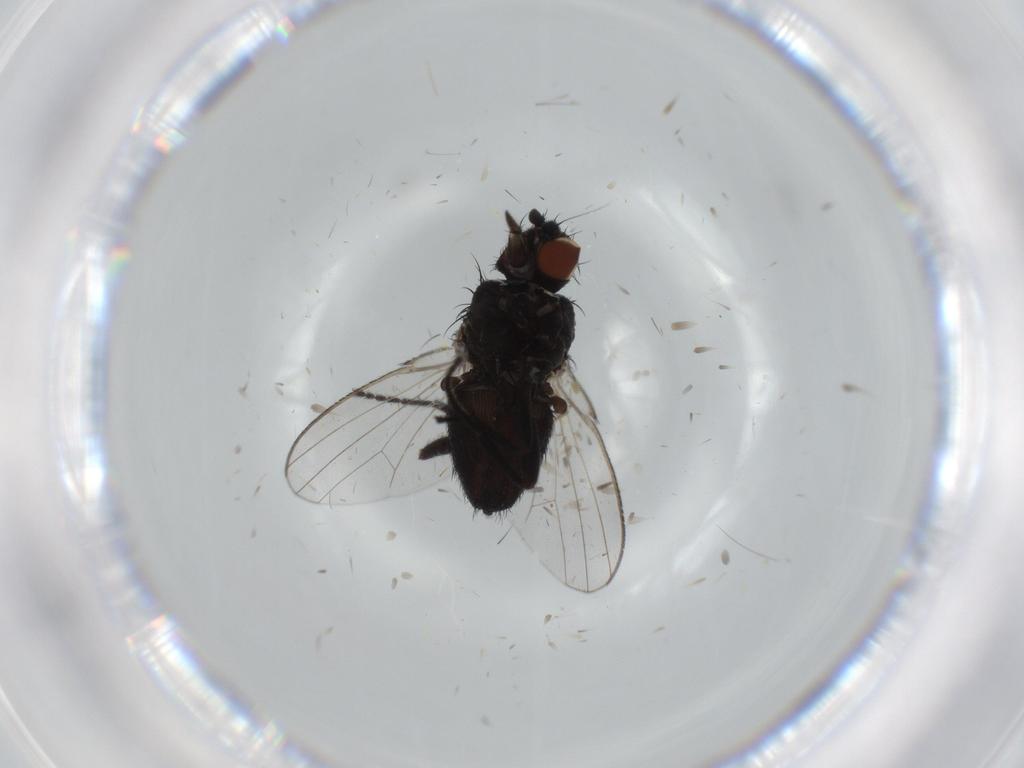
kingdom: Animalia
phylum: Arthropoda
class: Insecta
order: Diptera
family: Milichiidae
